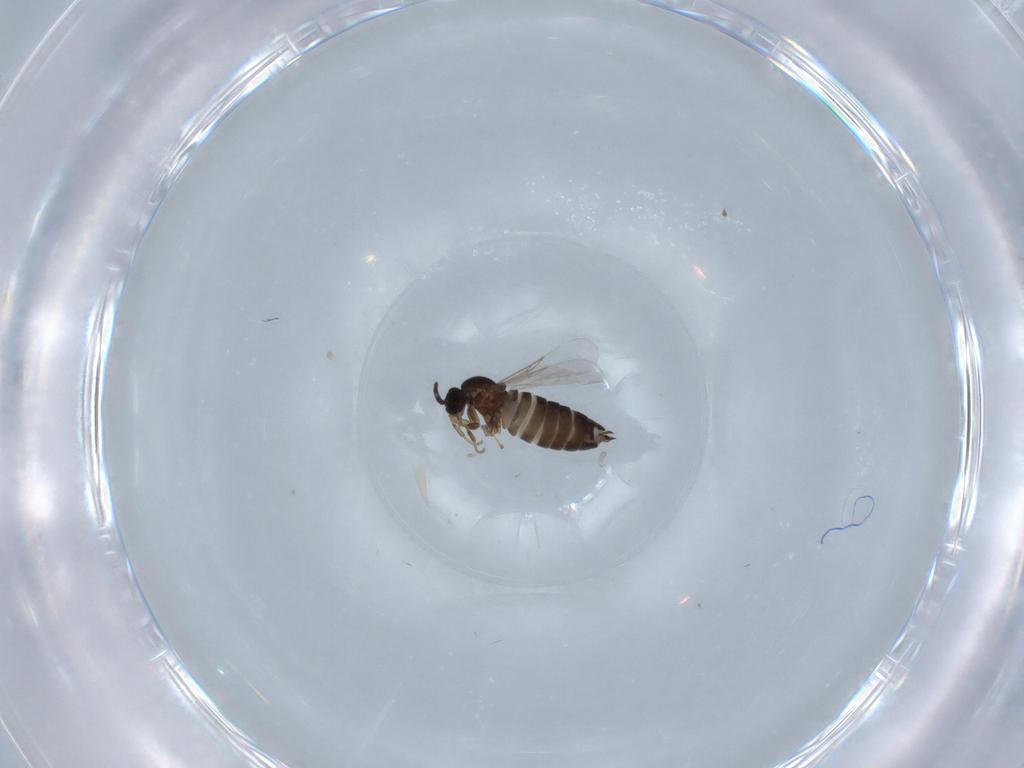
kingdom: Animalia
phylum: Arthropoda
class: Insecta
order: Diptera
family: Scatopsidae
